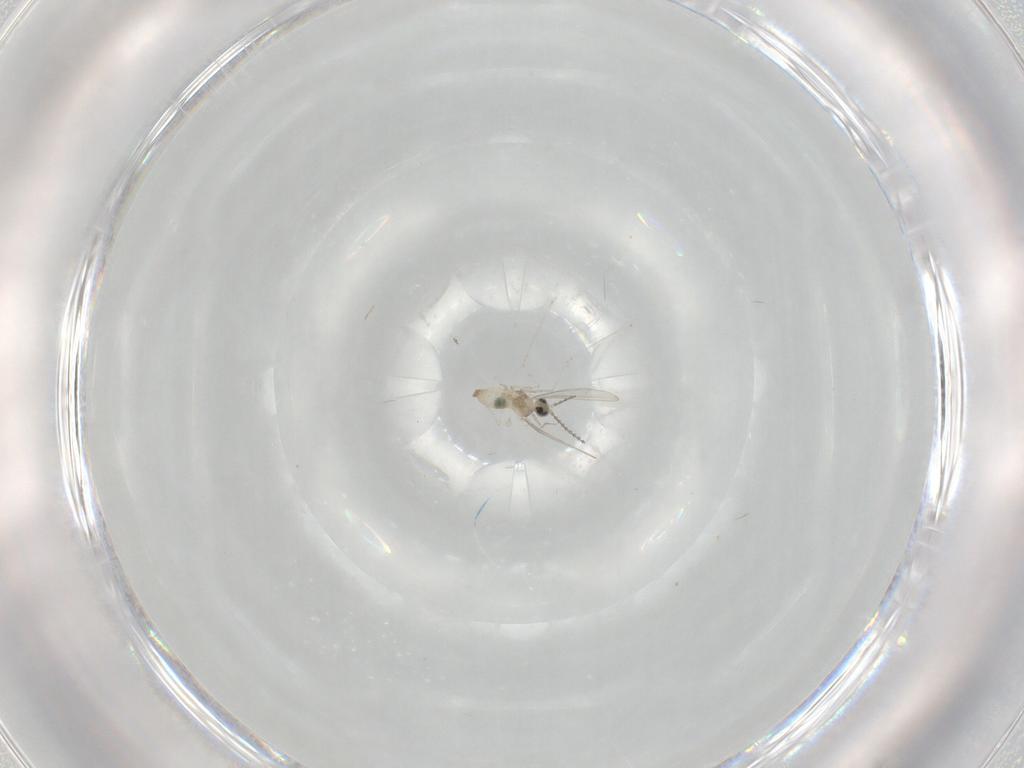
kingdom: Animalia
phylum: Arthropoda
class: Insecta
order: Diptera
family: Cecidomyiidae
